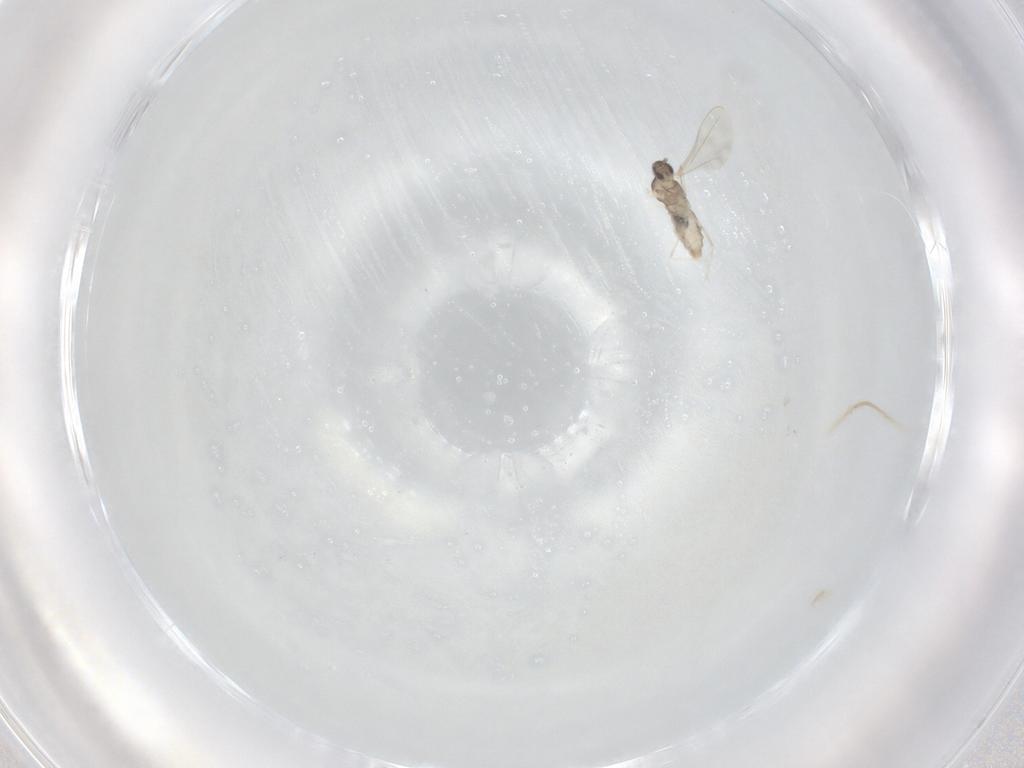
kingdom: Animalia
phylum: Arthropoda
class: Insecta
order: Diptera
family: Cecidomyiidae
